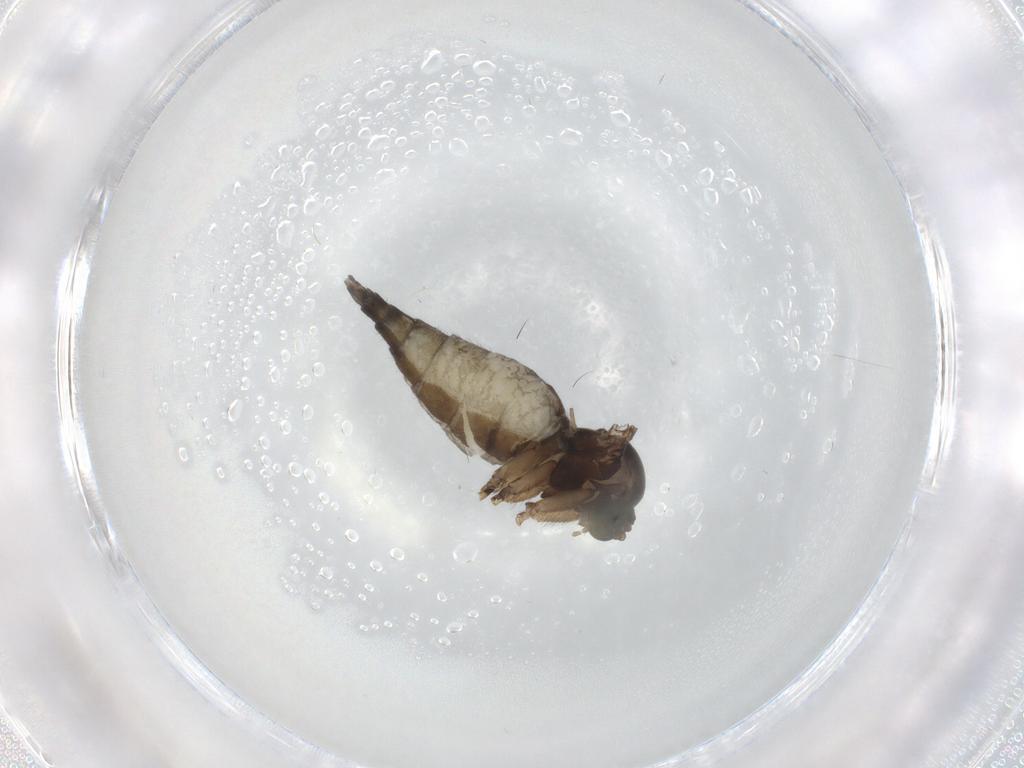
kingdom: Animalia
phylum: Arthropoda
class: Insecta
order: Diptera
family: Sciaridae
